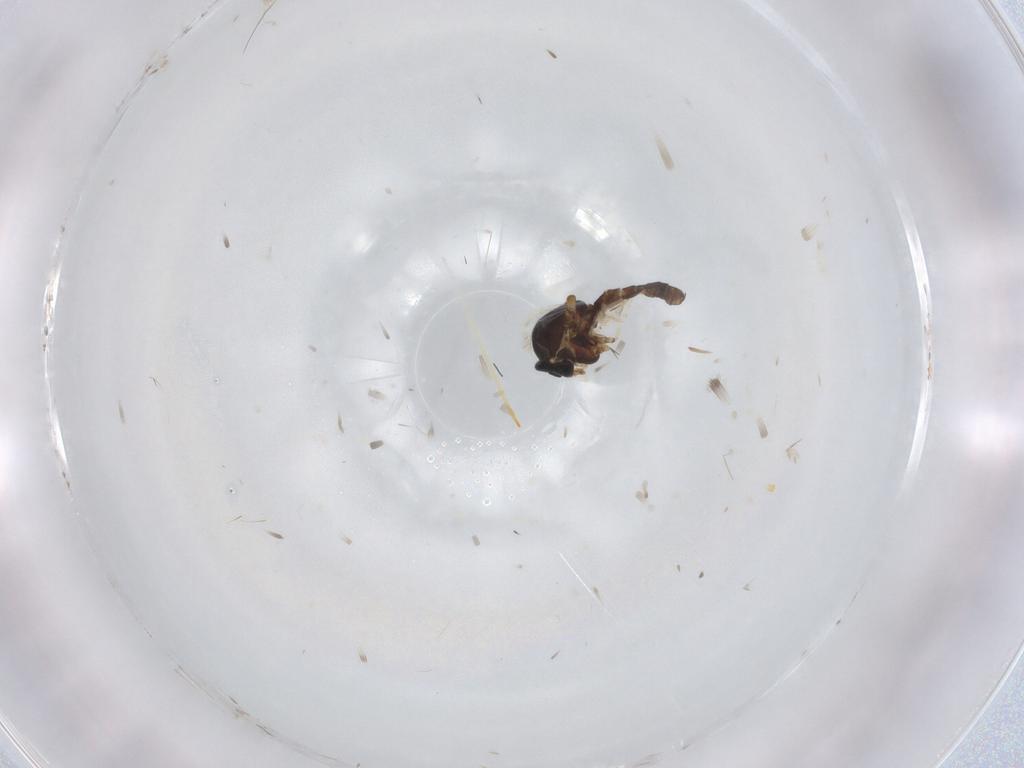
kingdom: Animalia
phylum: Arthropoda
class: Insecta
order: Diptera
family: Ceratopogonidae
